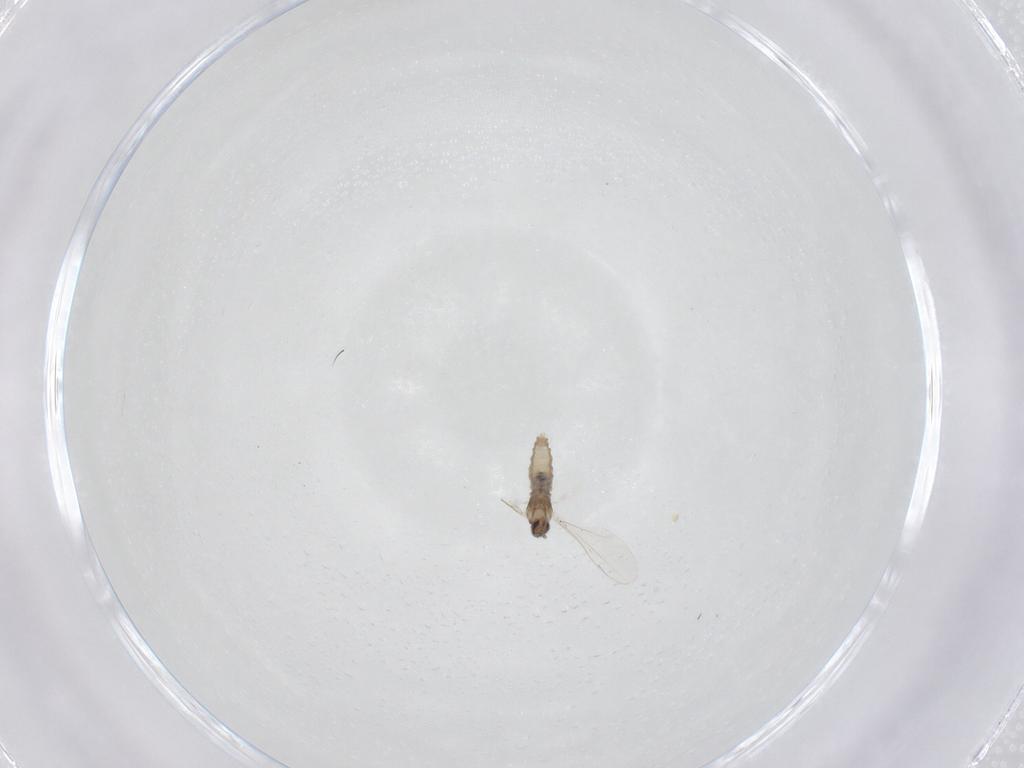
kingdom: Animalia
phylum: Arthropoda
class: Insecta
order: Diptera
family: Cecidomyiidae
